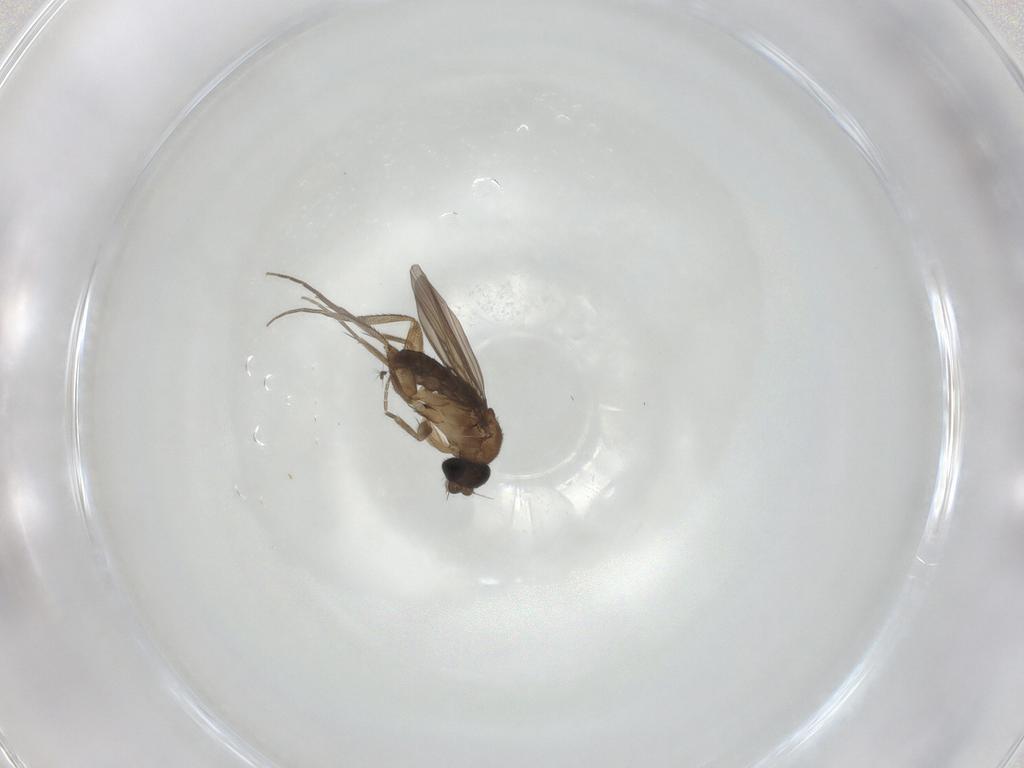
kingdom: Animalia
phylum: Arthropoda
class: Insecta
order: Diptera
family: Phoridae
